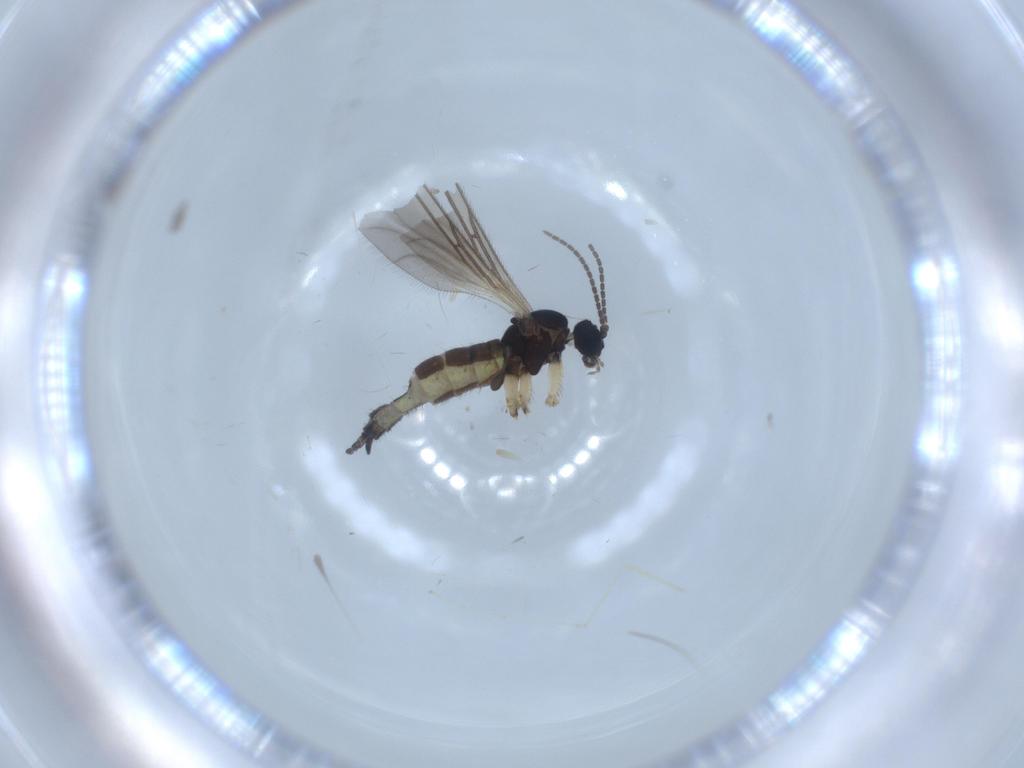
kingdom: Animalia
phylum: Arthropoda
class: Insecta
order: Diptera
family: Sciaridae
